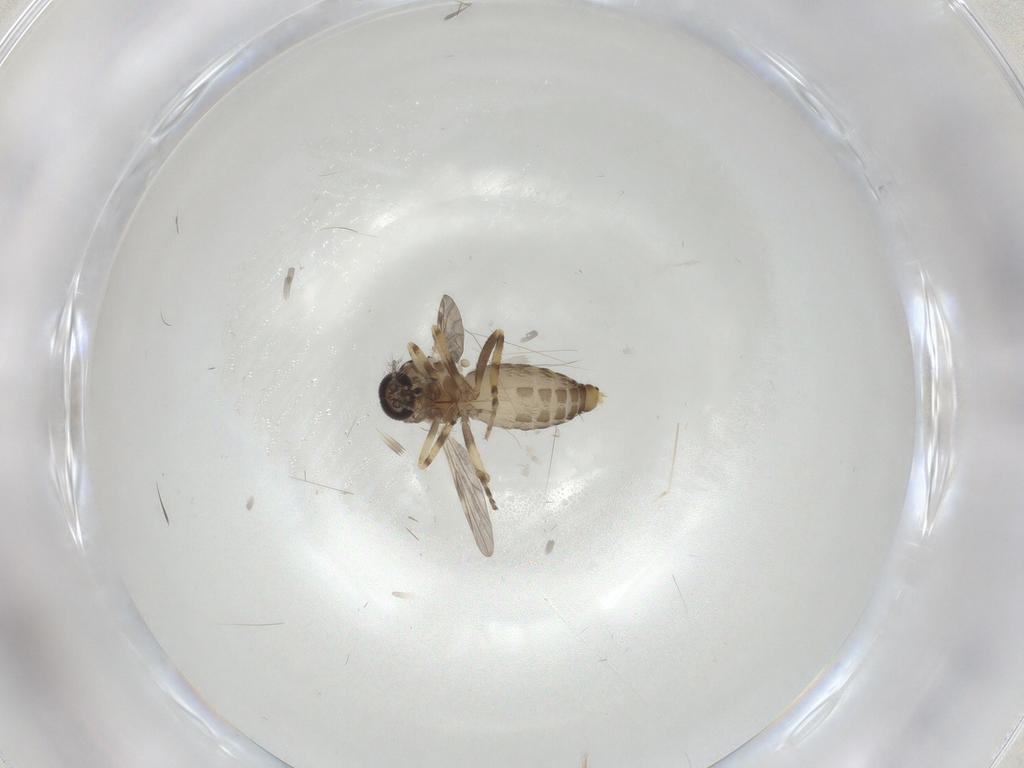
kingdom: Animalia
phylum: Arthropoda
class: Insecta
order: Diptera
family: Ceratopogonidae
